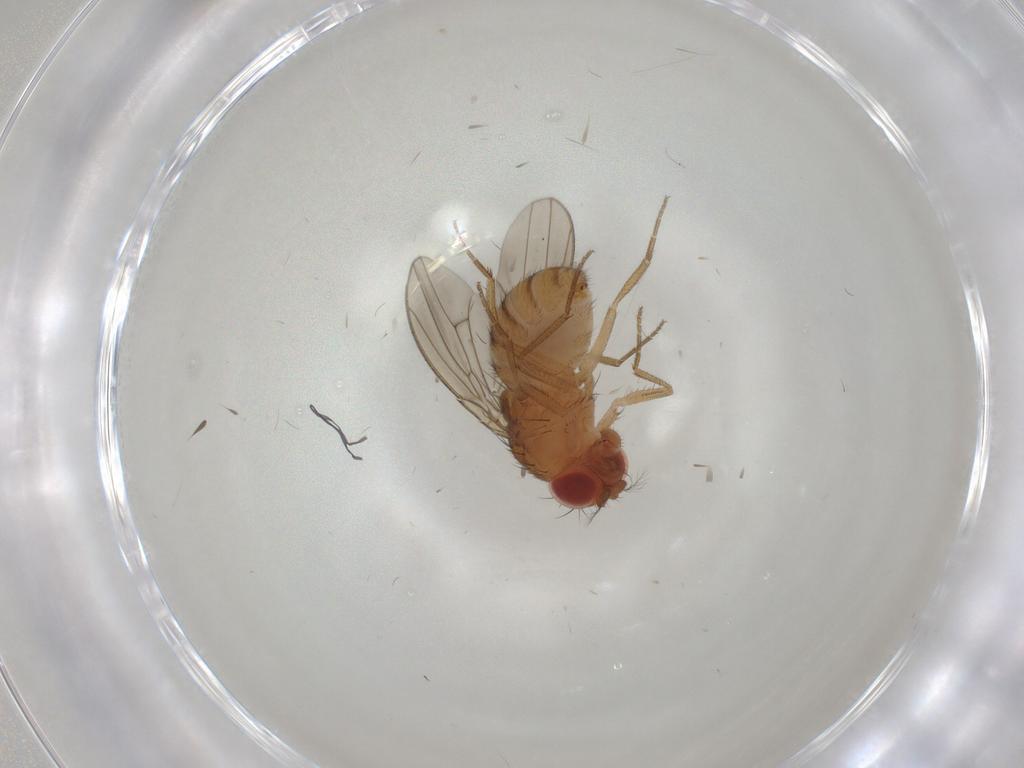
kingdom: Animalia
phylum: Arthropoda
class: Insecta
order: Diptera
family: Drosophilidae
